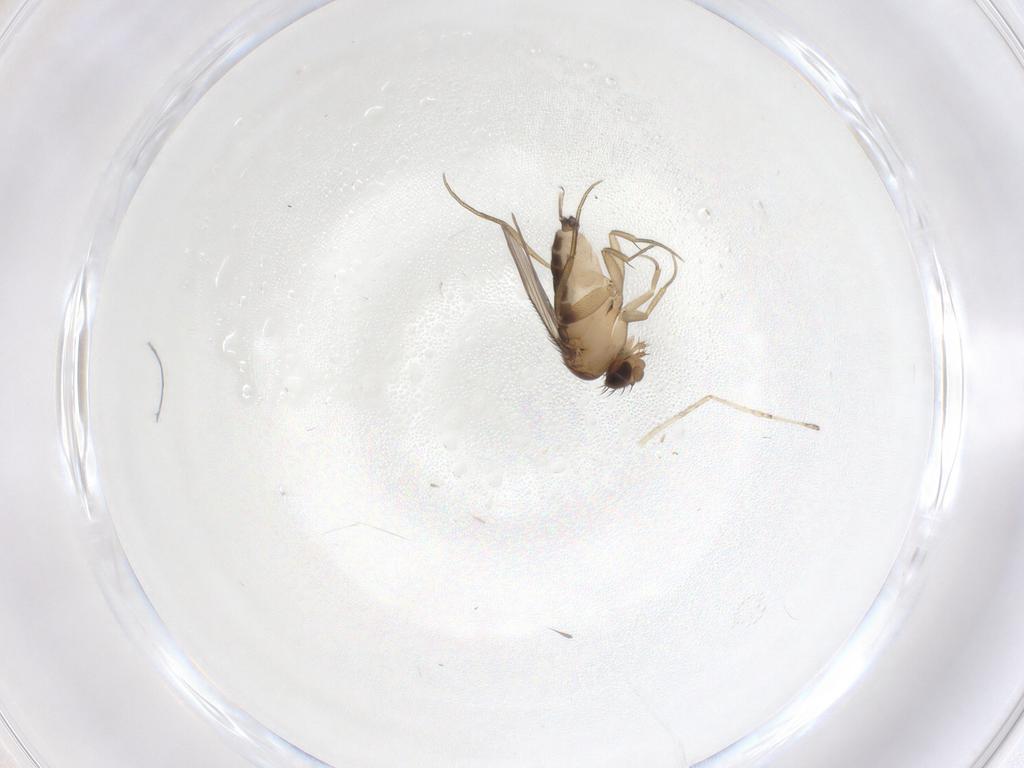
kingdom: Animalia
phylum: Arthropoda
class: Insecta
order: Diptera
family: Phoridae
